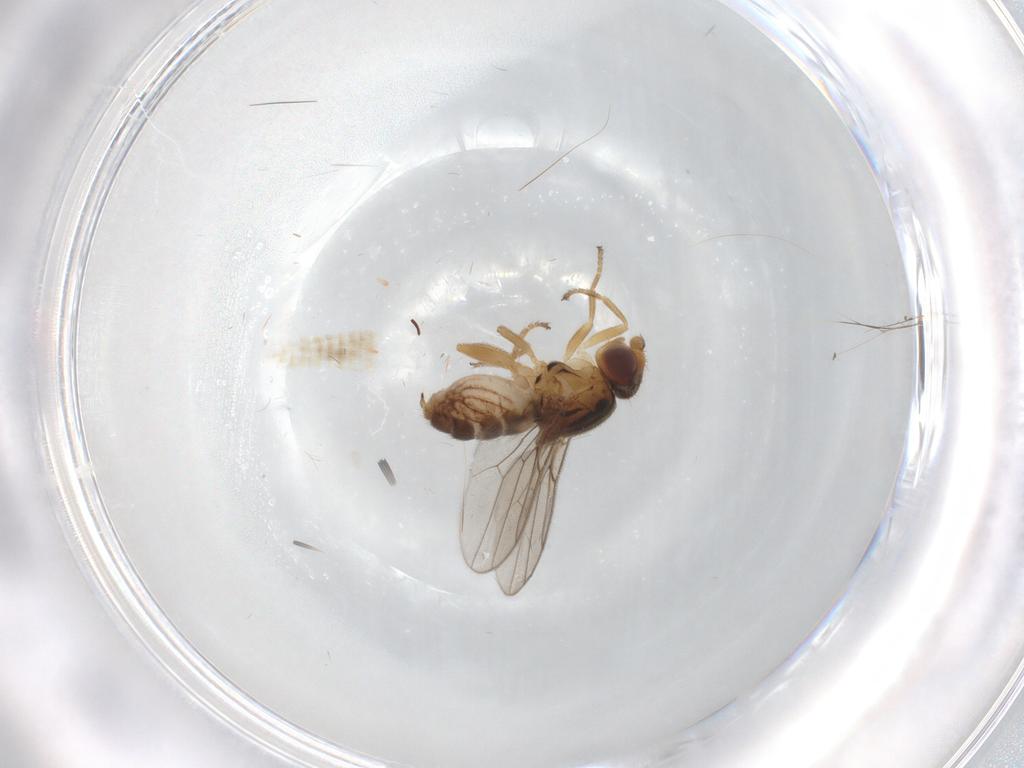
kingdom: Animalia
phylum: Arthropoda
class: Insecta
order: Diptera
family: Chloropidae
